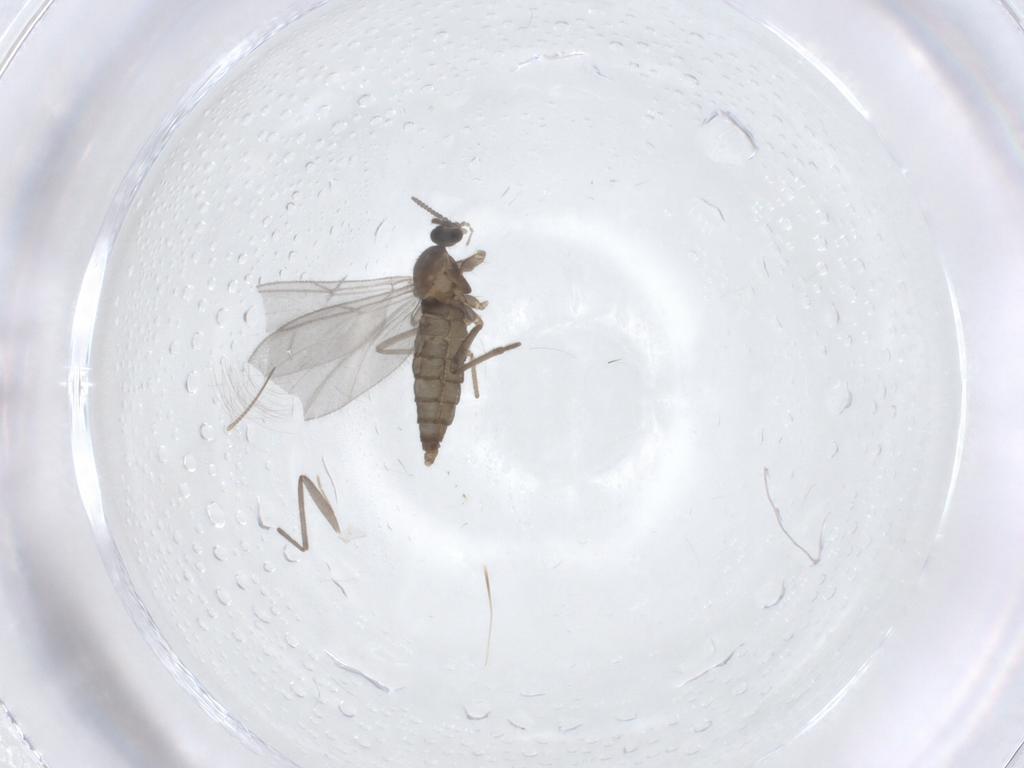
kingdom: Animalia
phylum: Arthropoda
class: Insecta
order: Diptera
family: Cecidomyiidae
